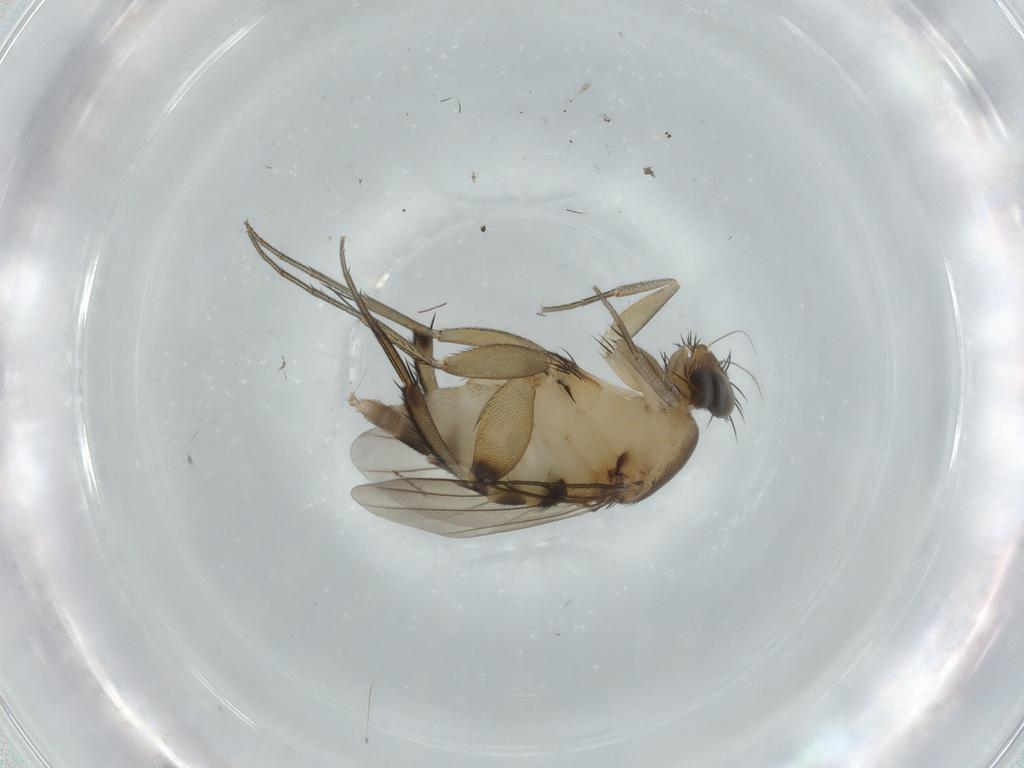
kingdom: Animalia
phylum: Arthropoda
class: Insecta
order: Diptera
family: Phoridae
